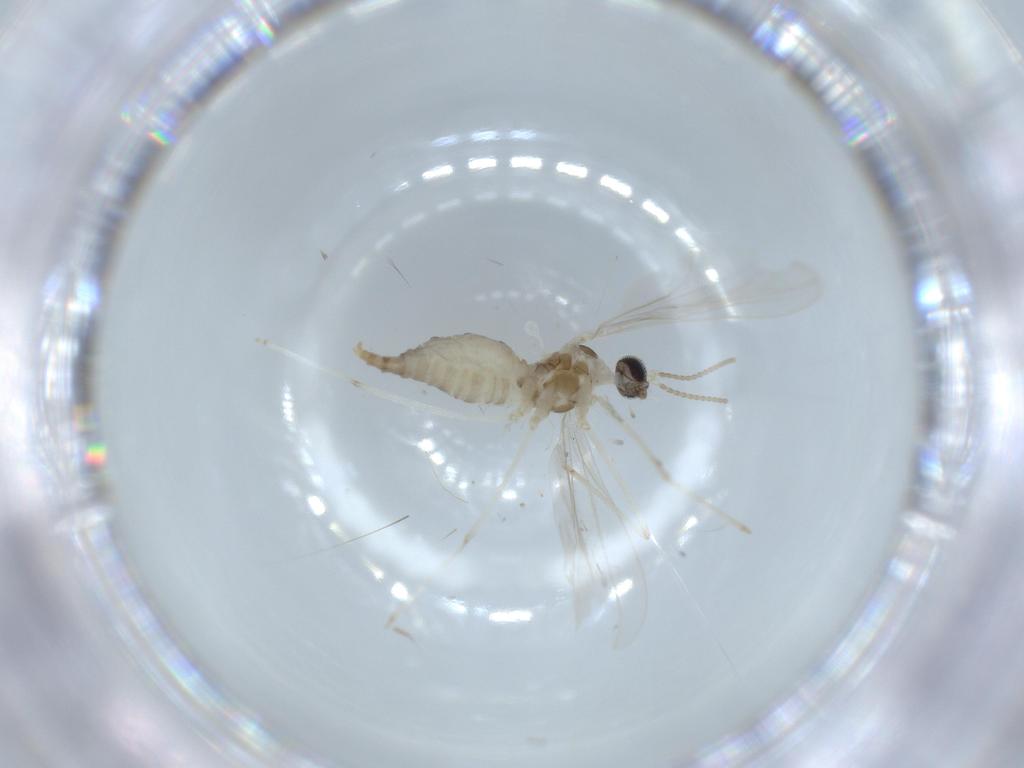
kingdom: Animalia
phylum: Arthropoda
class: Insecta
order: Diptera
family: Cecidomyiidae
